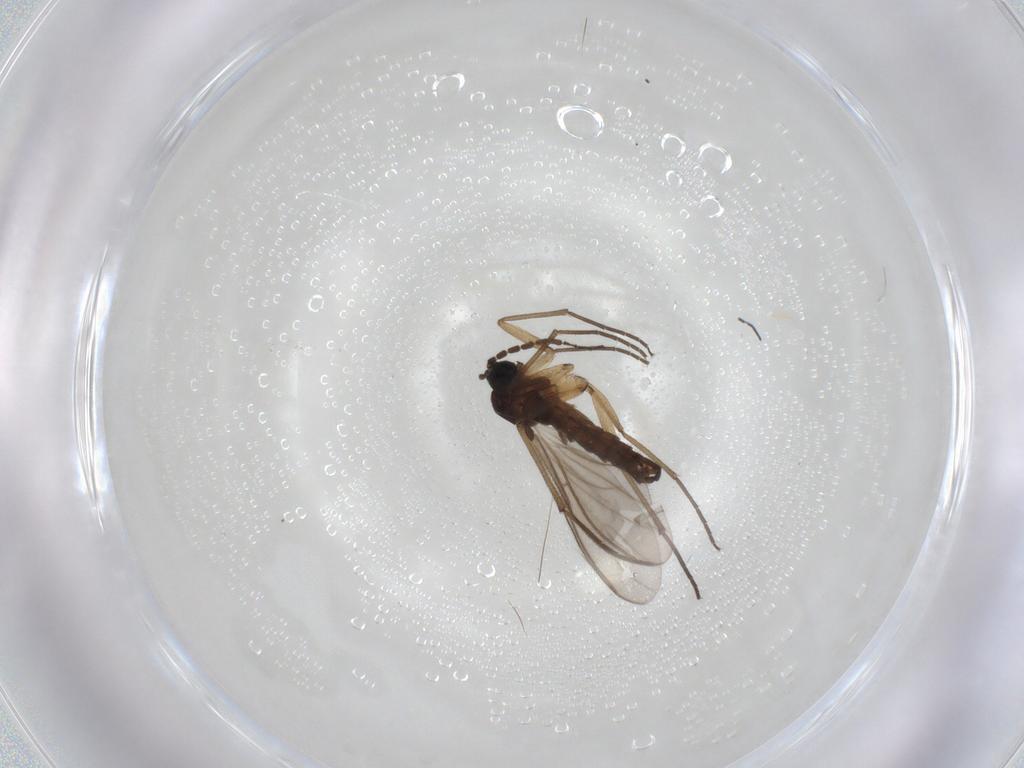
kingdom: Animalia
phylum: Arthropoda
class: Insecta
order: Diptera
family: Sciaridae
